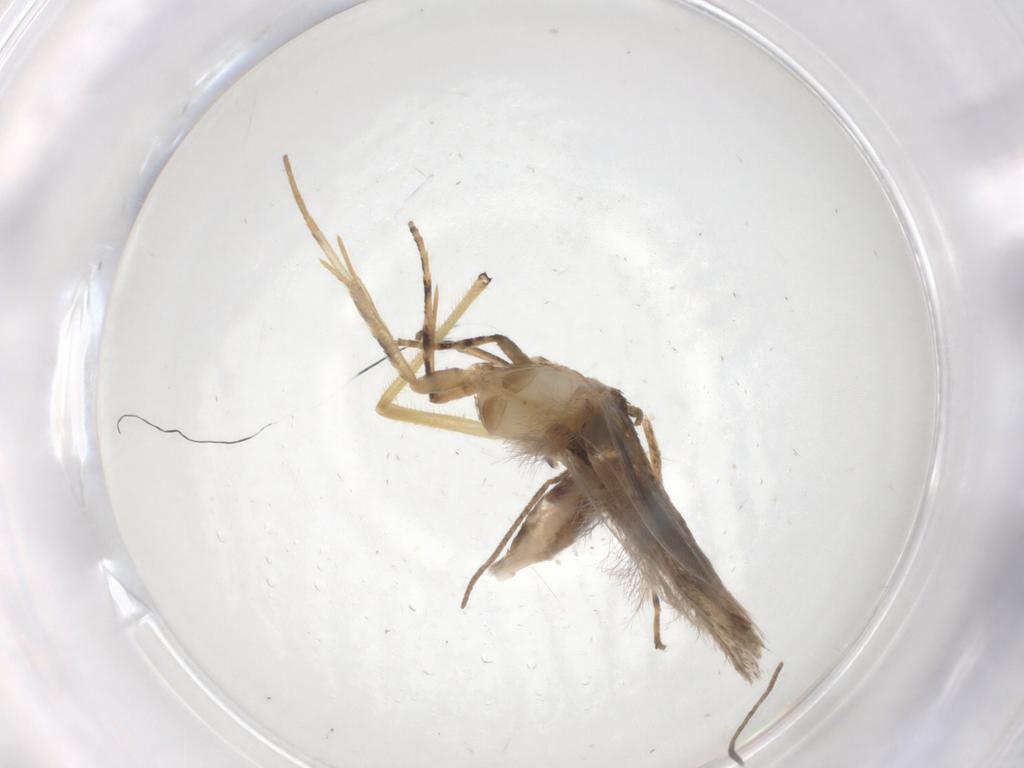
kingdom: Animalia
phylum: Arthropoda
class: Insecta
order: Lepidoptera
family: Gelechiidae
